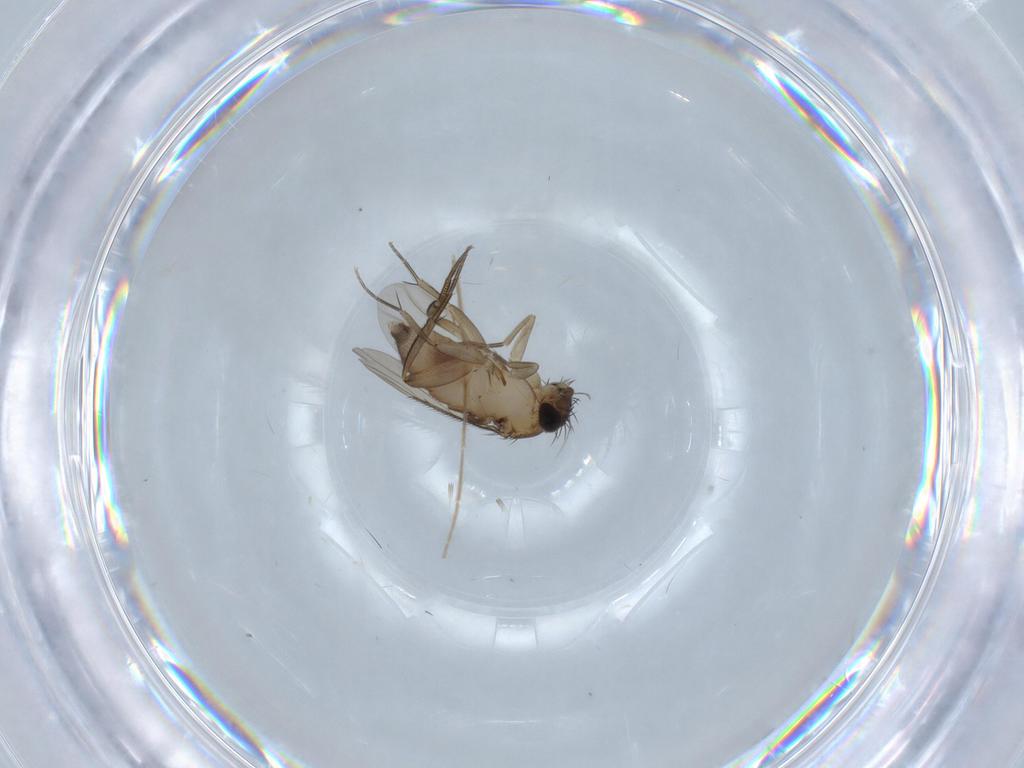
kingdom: Animalia
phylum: Arthropoda
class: Insecta
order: Diptera
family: Phoridae
